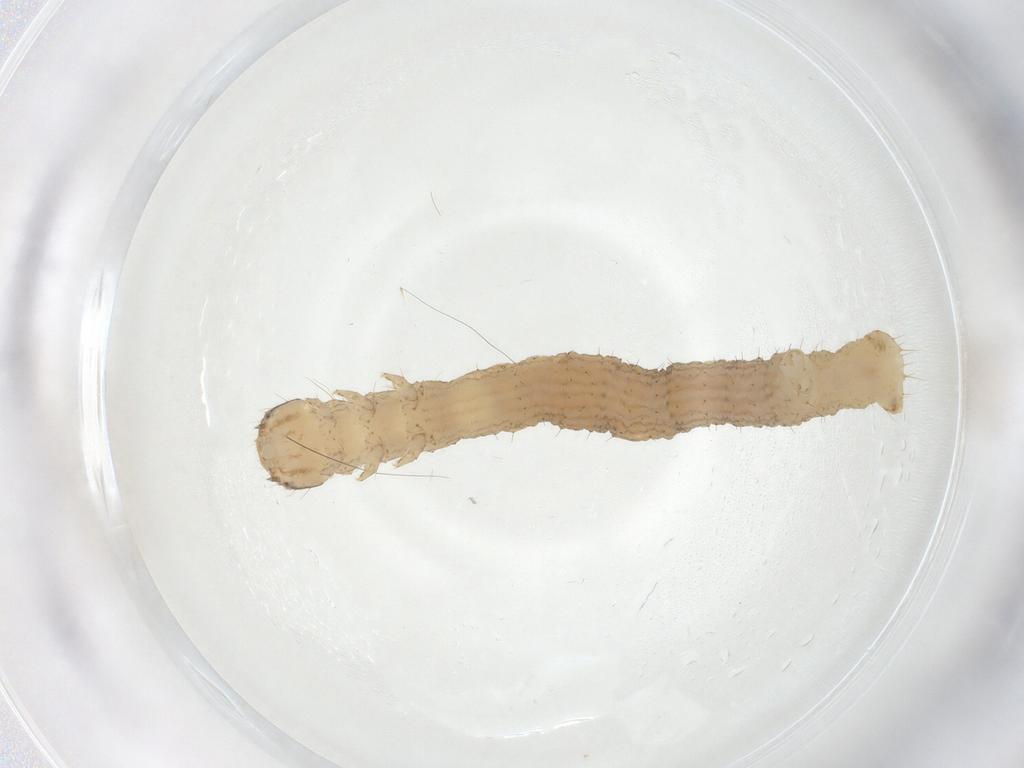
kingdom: Animalia
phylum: Arthropoda
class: Insecta
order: Lepidoptera
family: Geometridae
